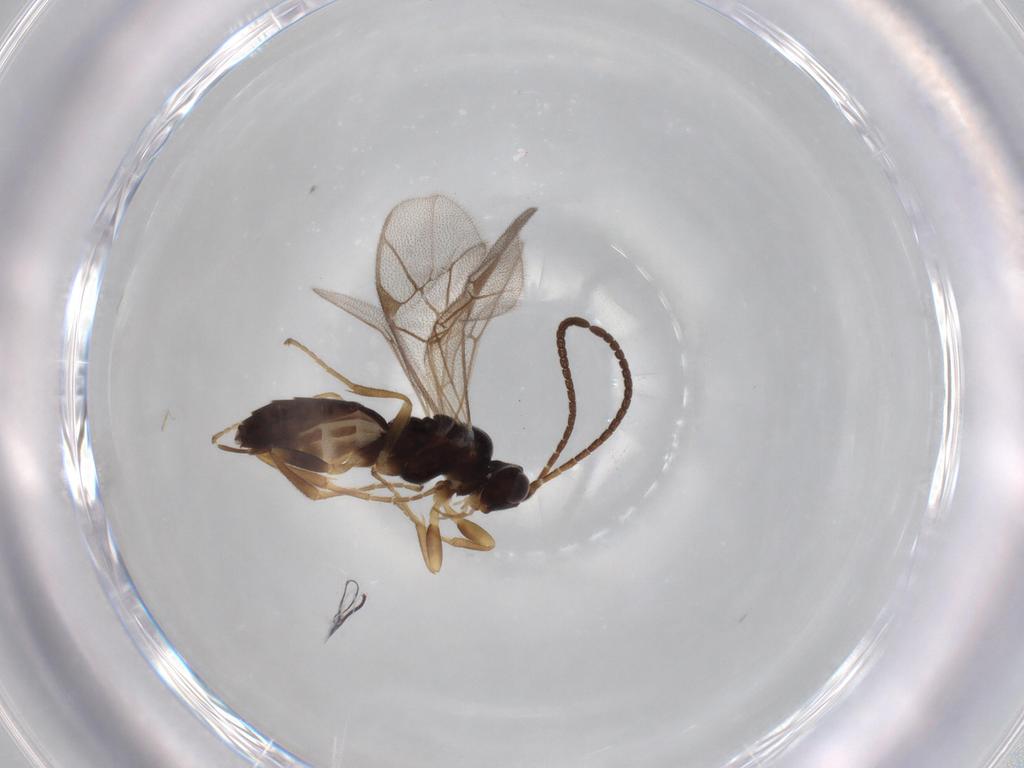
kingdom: Animalia
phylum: Arthropoda
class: Insecta
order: Hymenoptera
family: Ichneumonidae
